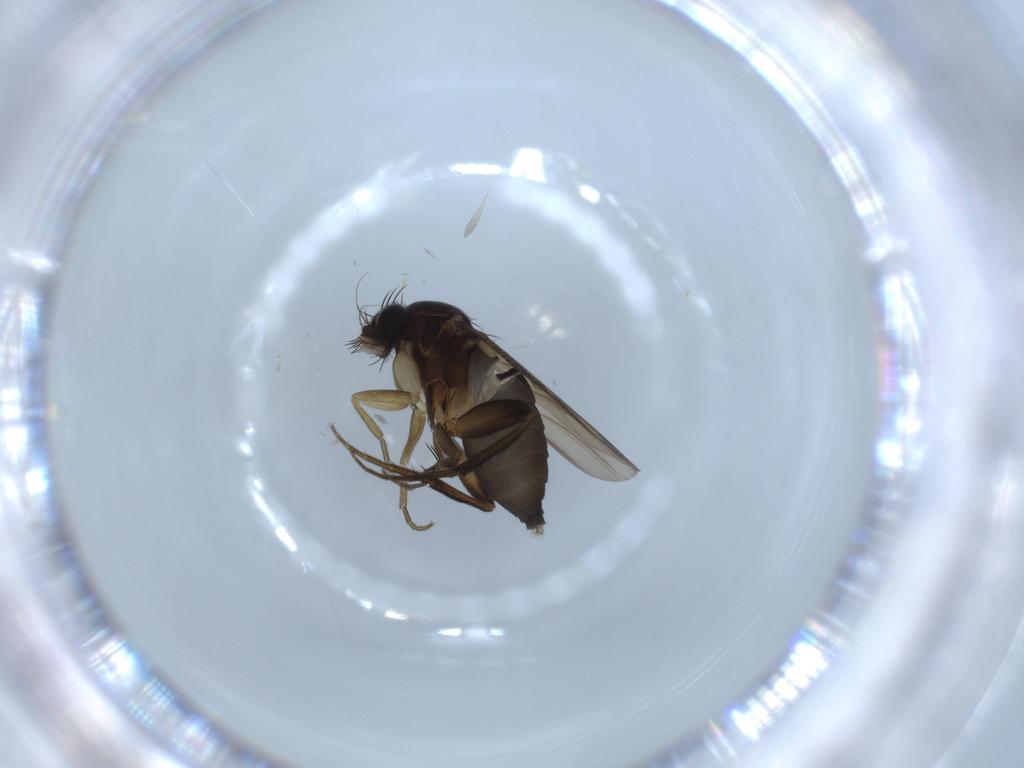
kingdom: Animalia
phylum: Arthropoda
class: Insecta
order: Diptera
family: Phoridae
